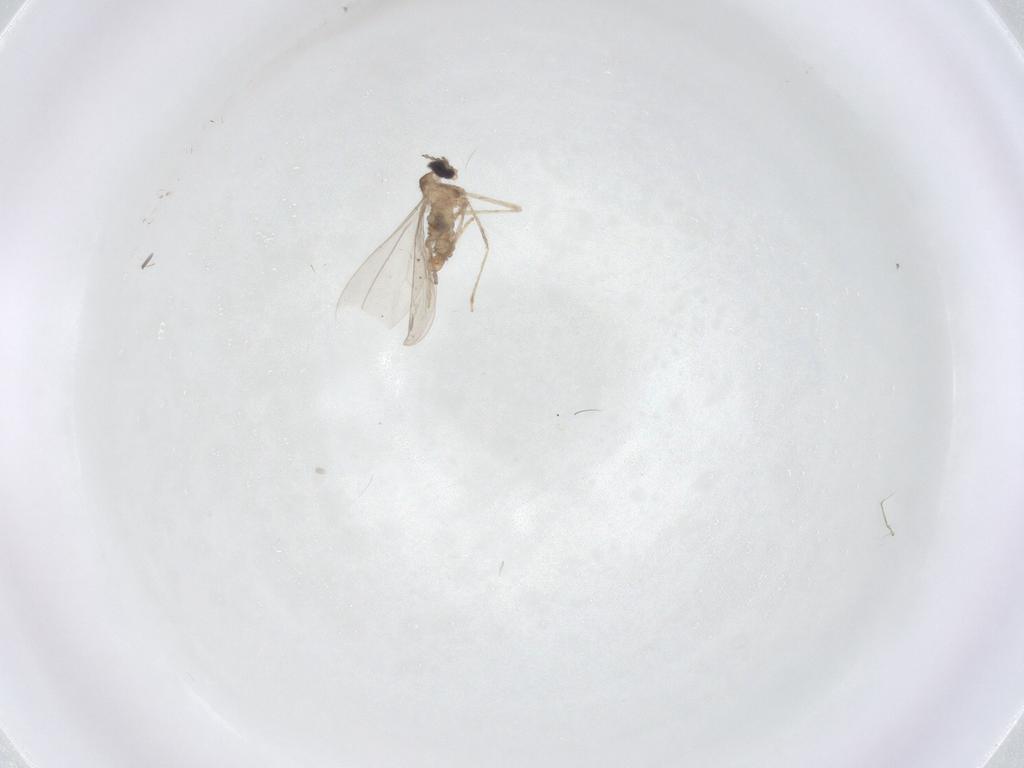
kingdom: Animalia
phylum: Arthropoda
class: Insecta
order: Diptera
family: Cecidomyiidae
